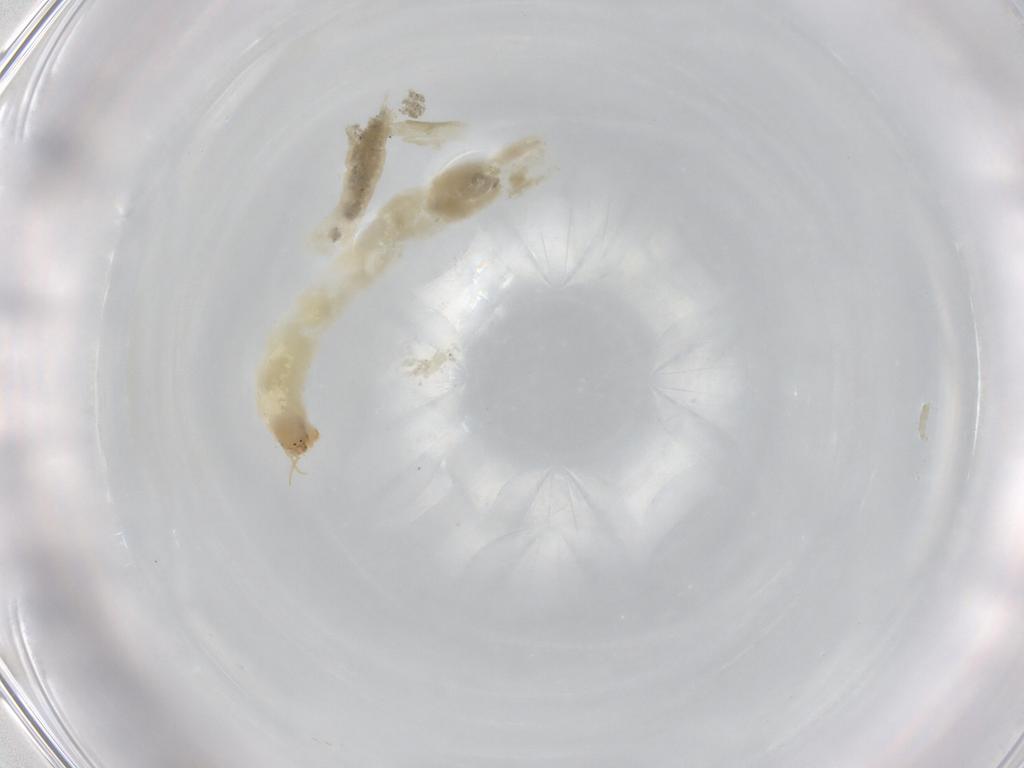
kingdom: Animalia
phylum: Arthropoda
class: Insecta
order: Diptera
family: Chironomidae
